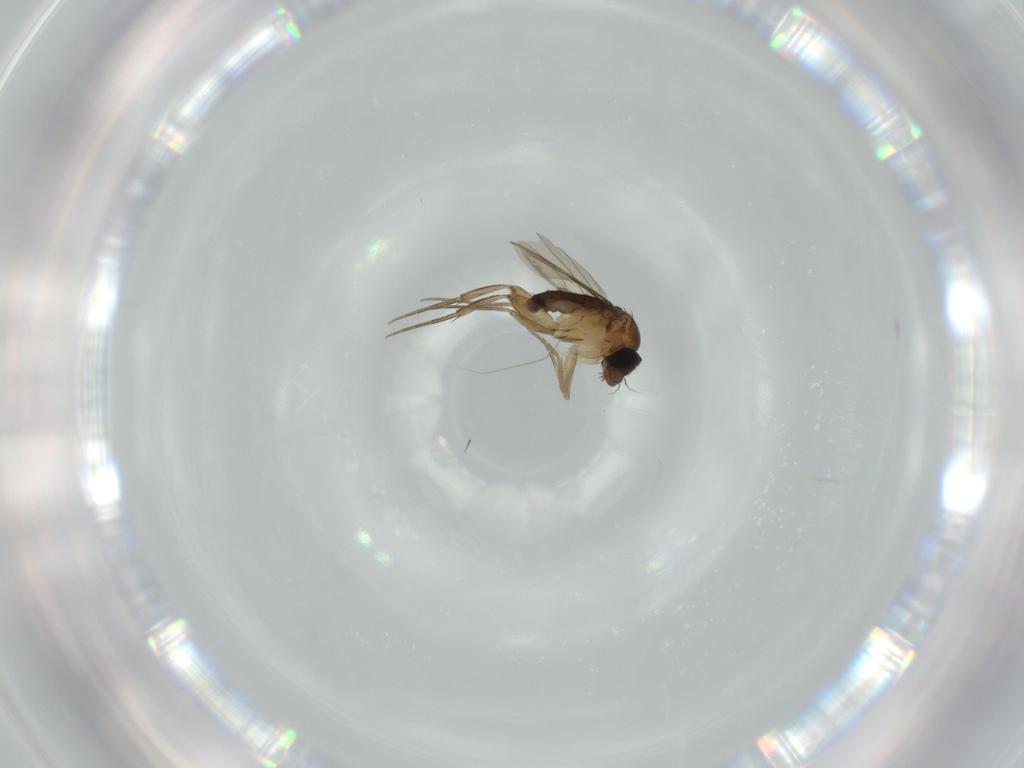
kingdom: Animalia
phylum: Arthropoda
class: Insecta
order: Diptera
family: Phoridae
